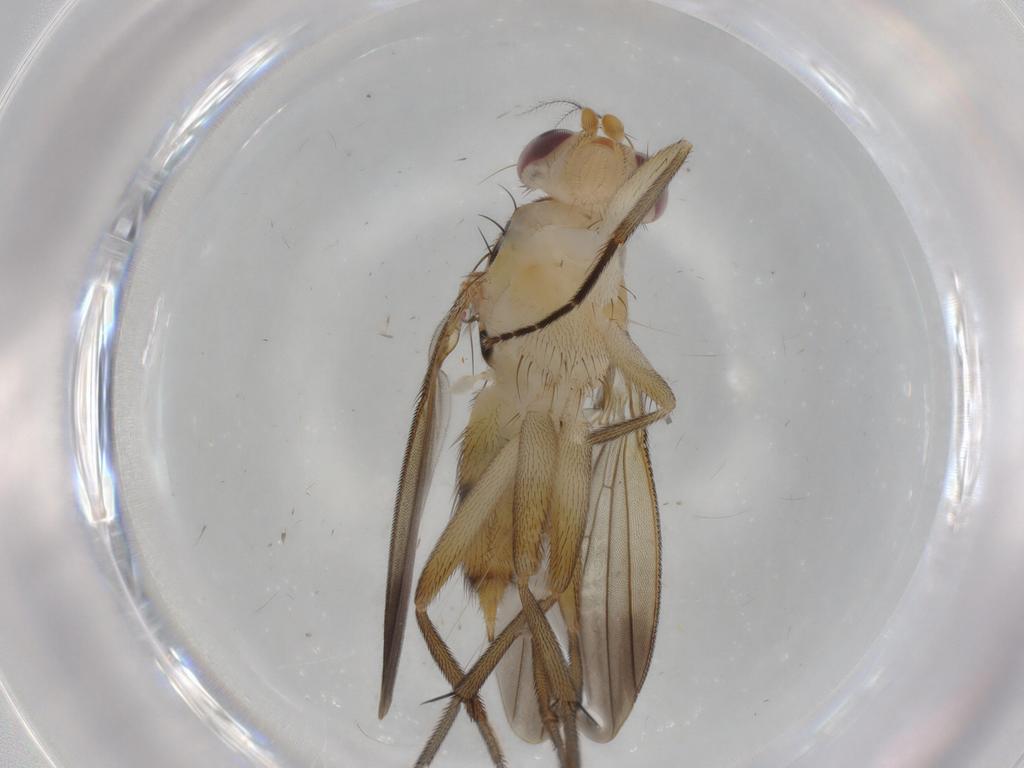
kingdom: Animalia
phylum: Arthropoda
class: Insecta
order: Diptera
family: Clusiidae
